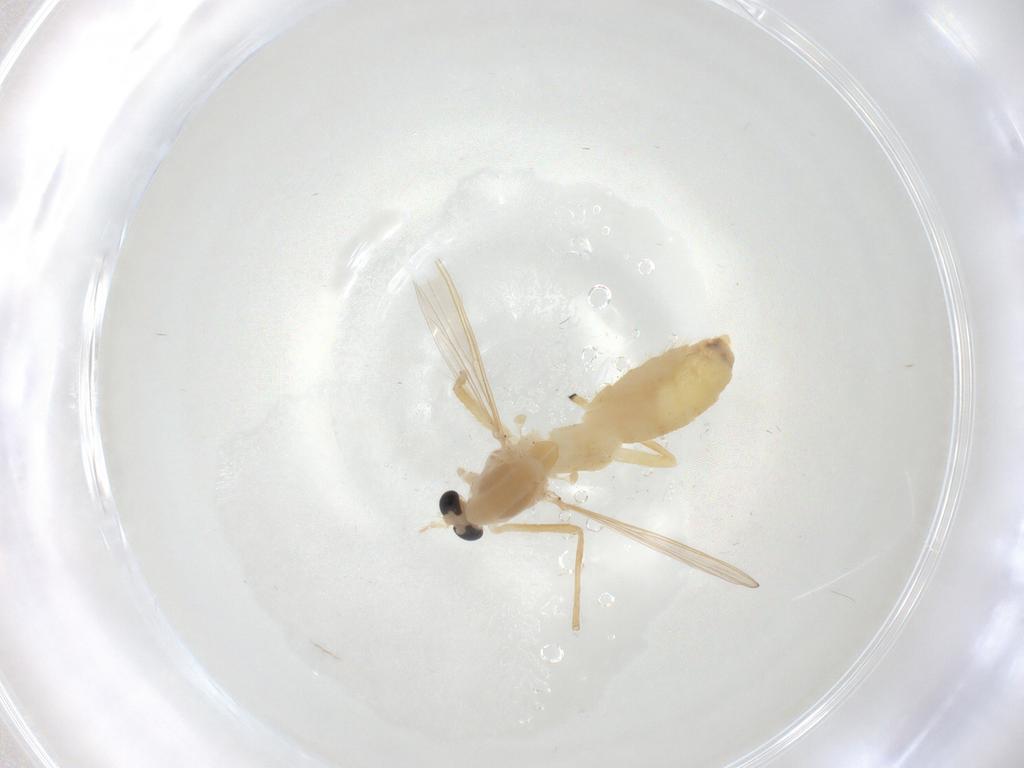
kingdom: Animalia
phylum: Arthropoda
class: Insecta
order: Diptera
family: Chironomidae
